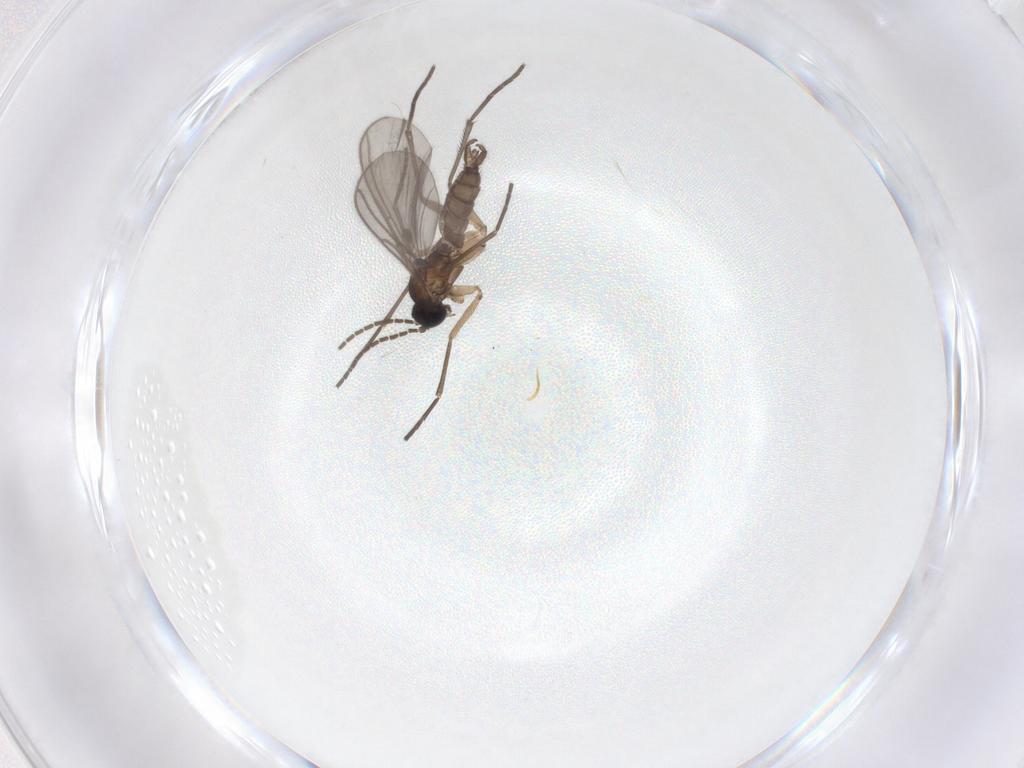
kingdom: Animalia
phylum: Arthropoda
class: Insecta
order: Diptera
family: Sciaridae
